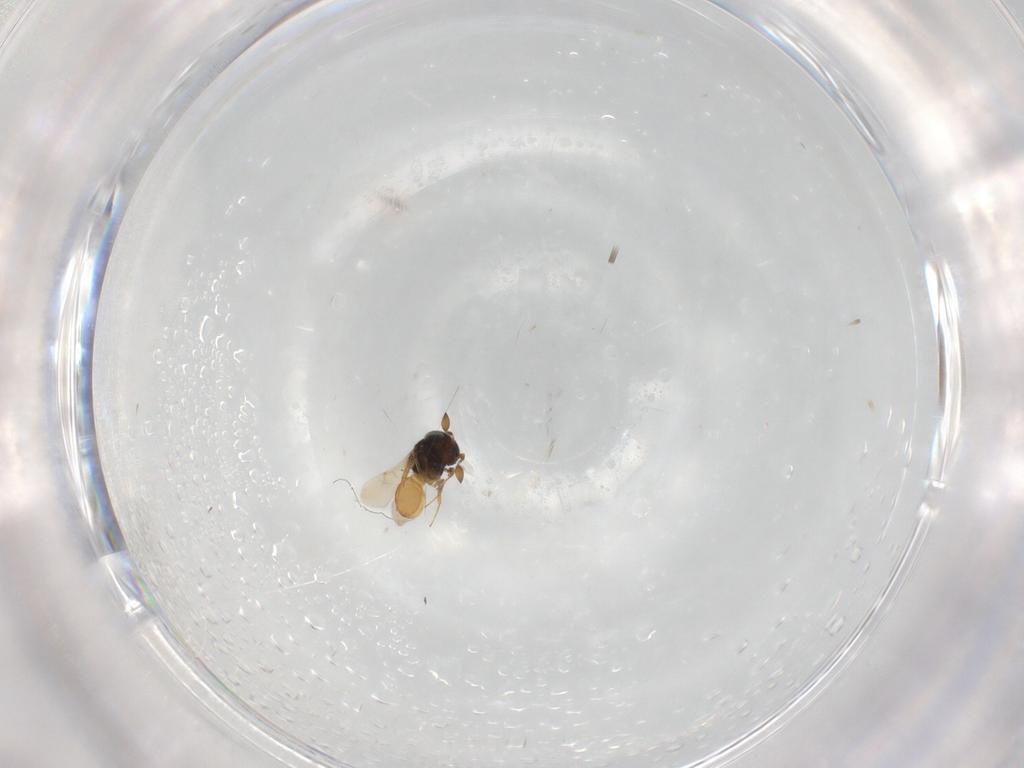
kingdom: Animalia
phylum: Arthropoda
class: Insecta
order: Hymenoptera
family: Scelionidae
